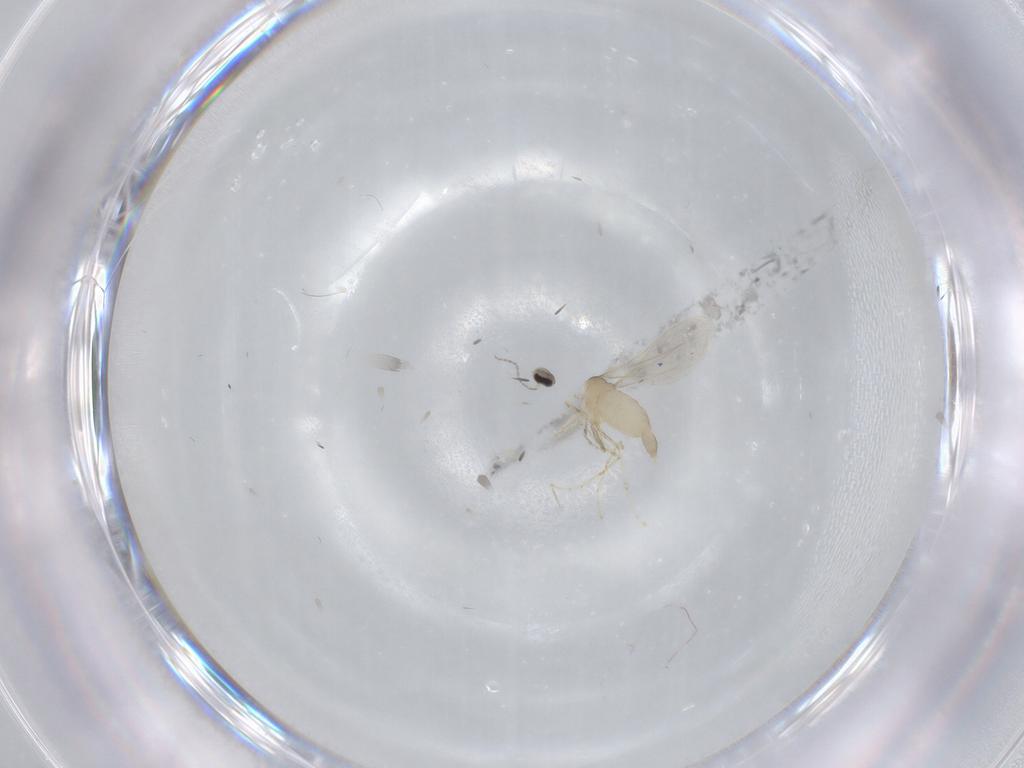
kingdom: Animalia
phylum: Arthropoda
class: Insecta
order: Diptera
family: Cecidomyiidae
